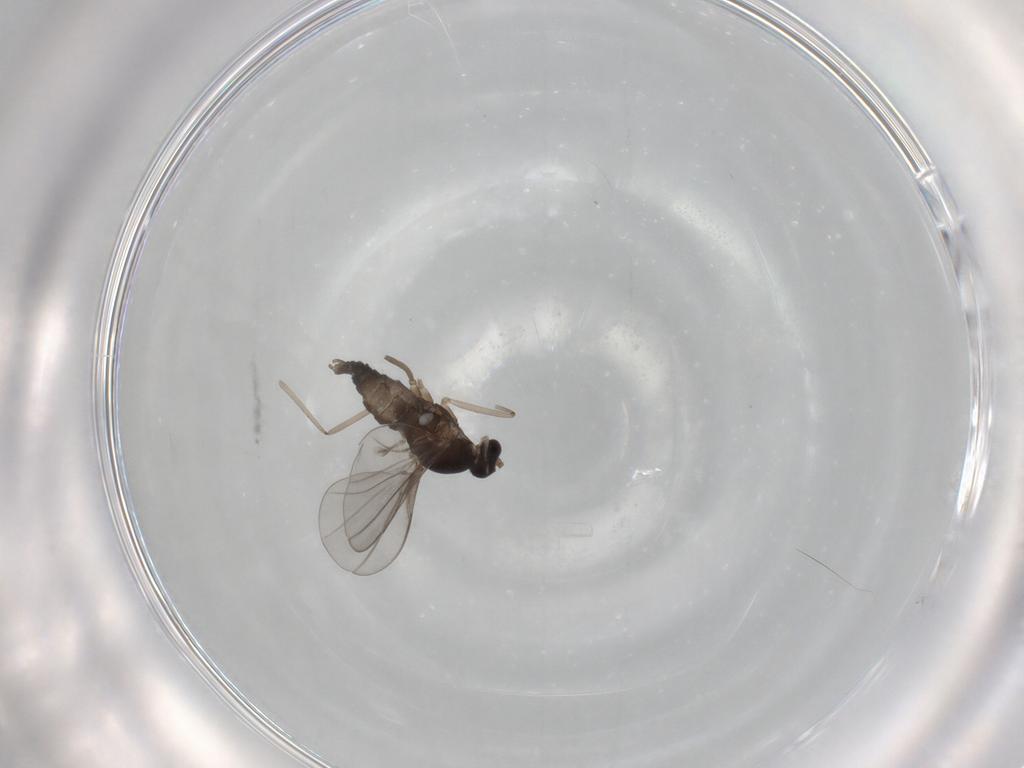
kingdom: Animalia
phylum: Arthropoda
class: Insecta
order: Diptera
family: Cecidomyiidae
